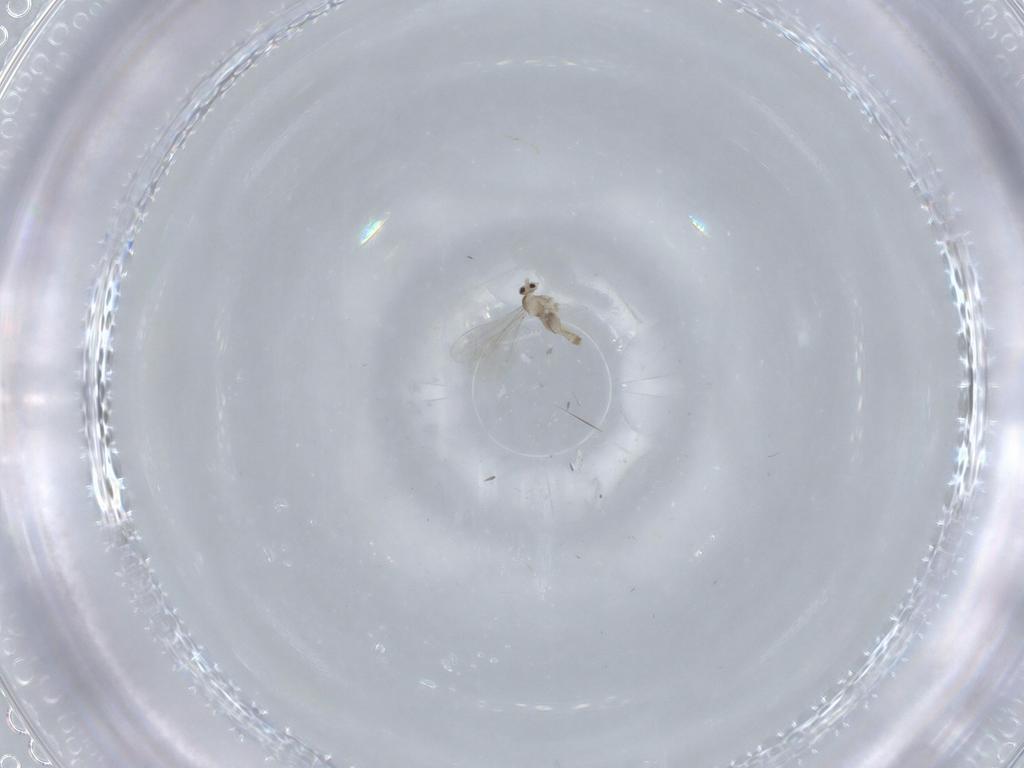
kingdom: Animalia
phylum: Arthropoda
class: Insecta
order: Diptera
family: Cecidomyiidae
